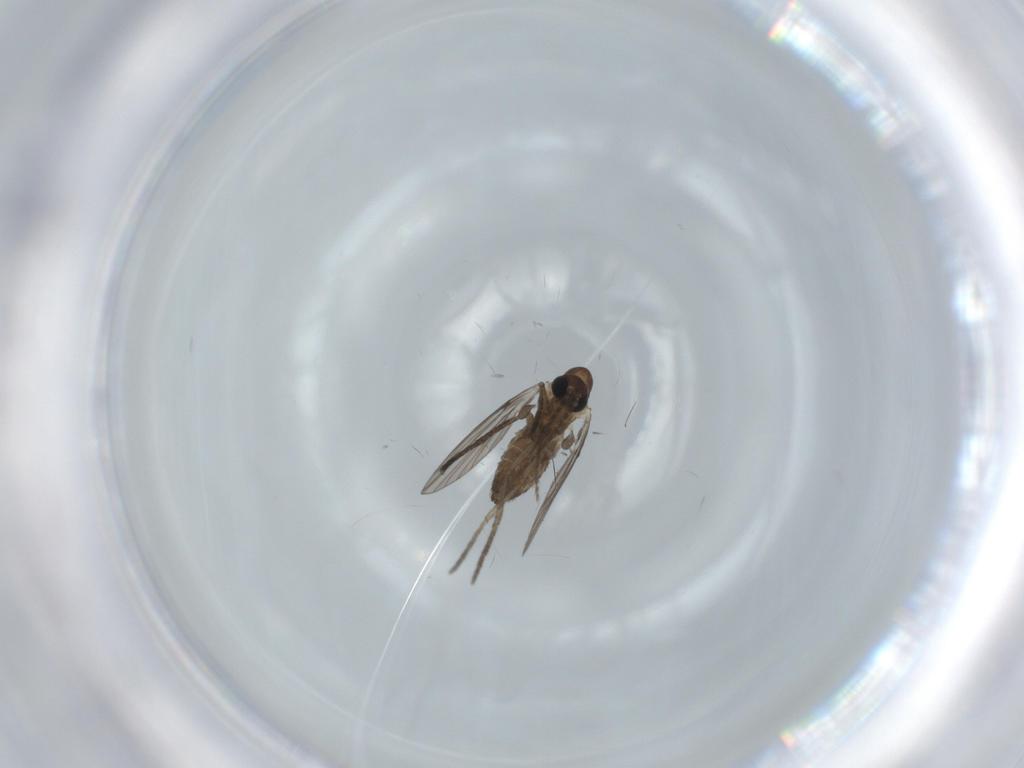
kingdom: Animalia
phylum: Arthropoda
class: Insecta
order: Diptera
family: Psychodidae
